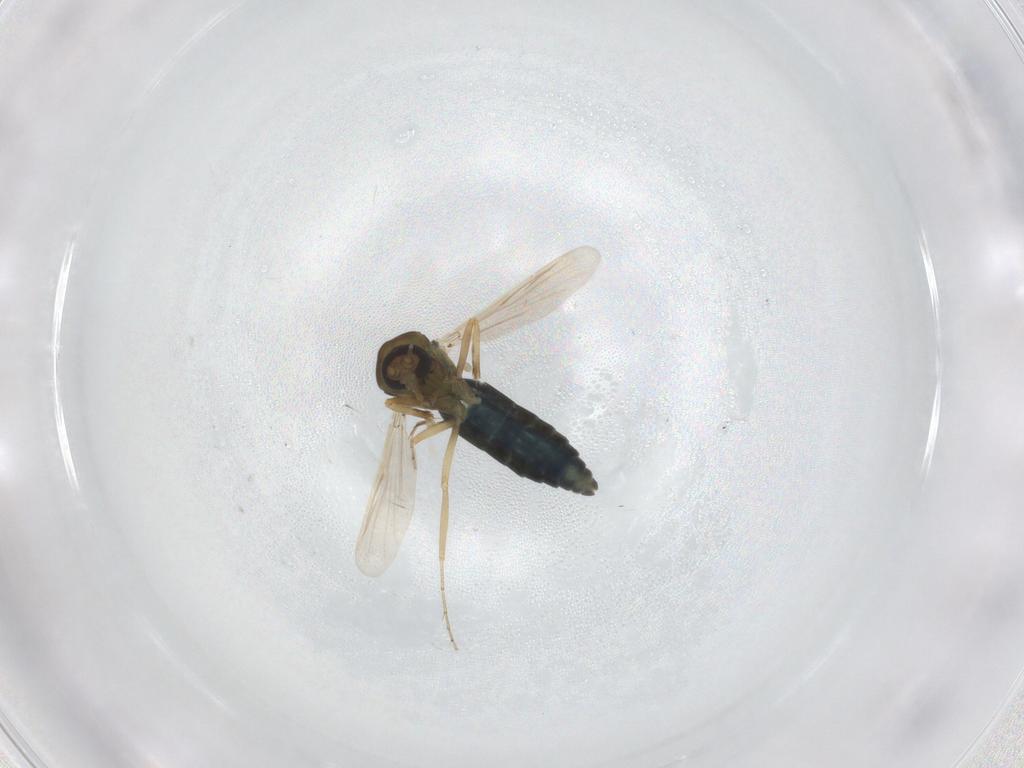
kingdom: Animalia
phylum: Arthropoda
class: Insecta
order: Diptera
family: Ceratopogonidae
